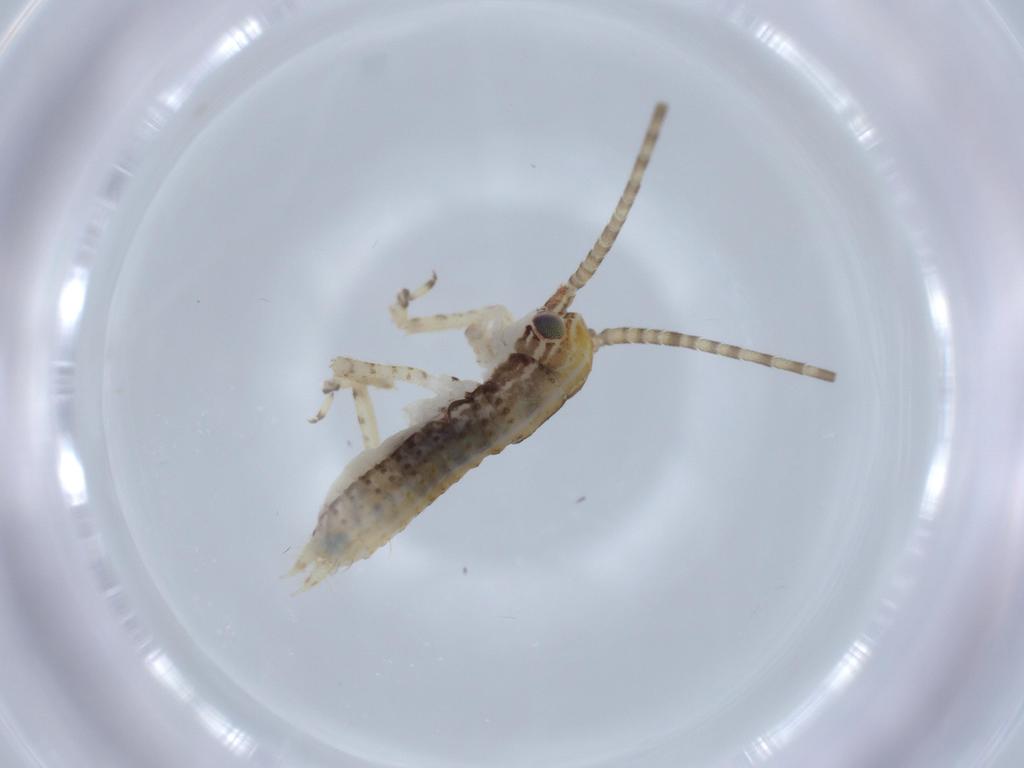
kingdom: Animalia
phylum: Arthropoda
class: Insecta
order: Orthoptera
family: Gryllidae
